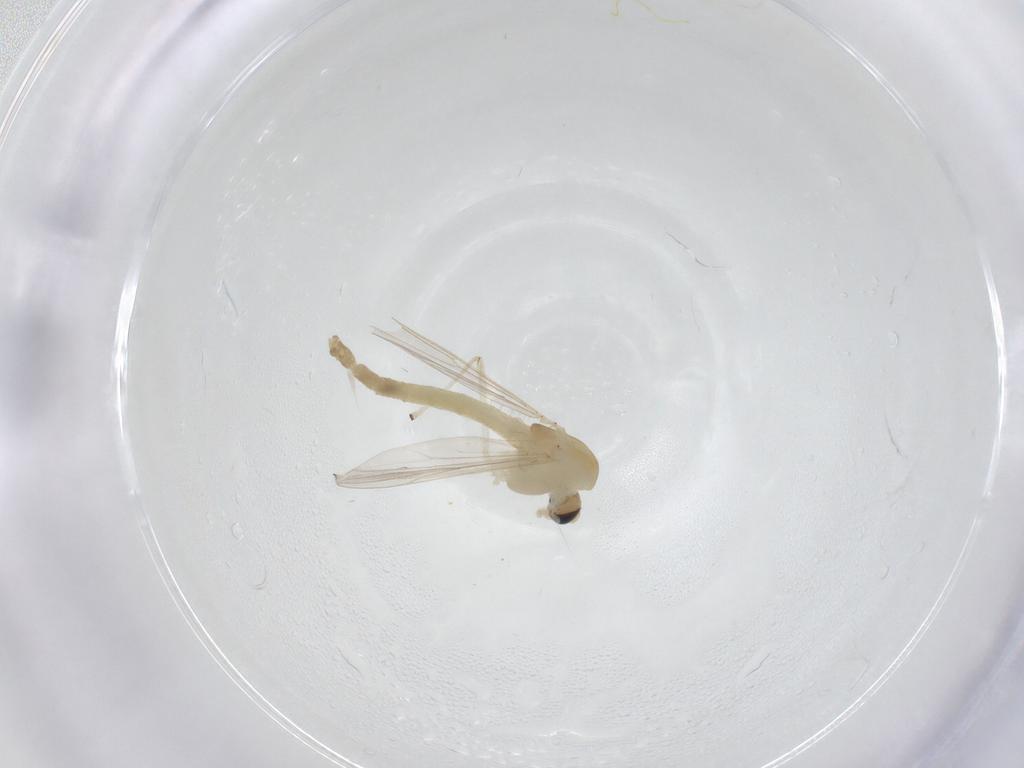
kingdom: Animalia
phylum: Arthropoda
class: Insecta
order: Diptera
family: Chironomidae
